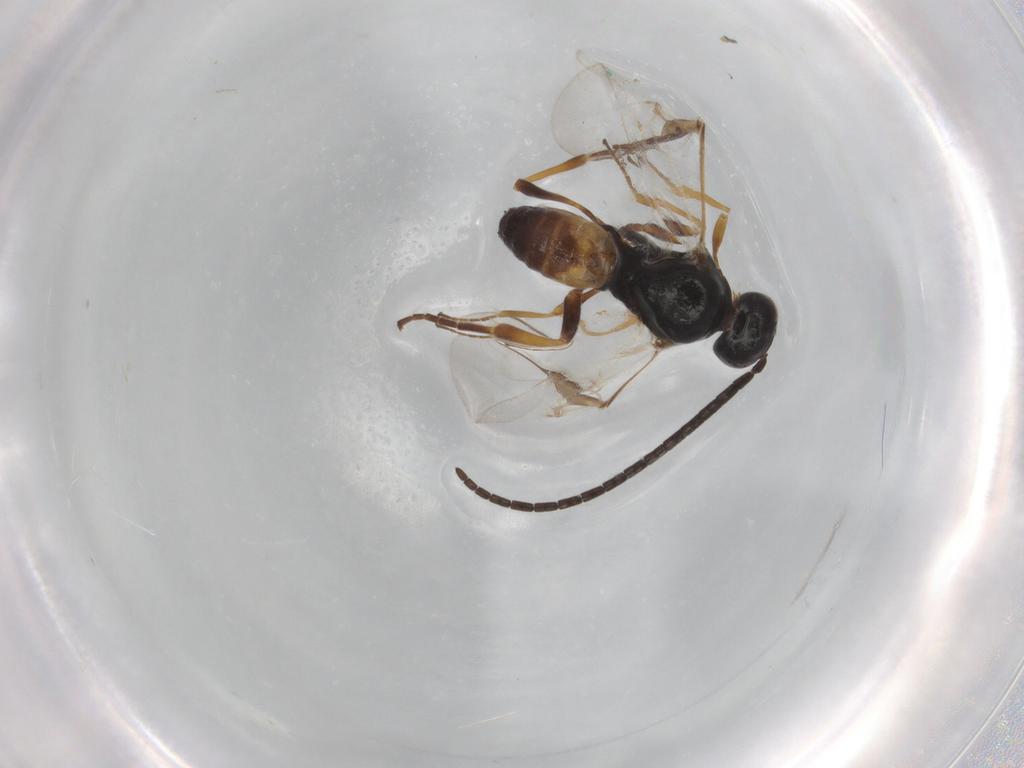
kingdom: Animalia
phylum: Arthropoda
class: Insecta
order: Hymenoptera
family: Braconidae
